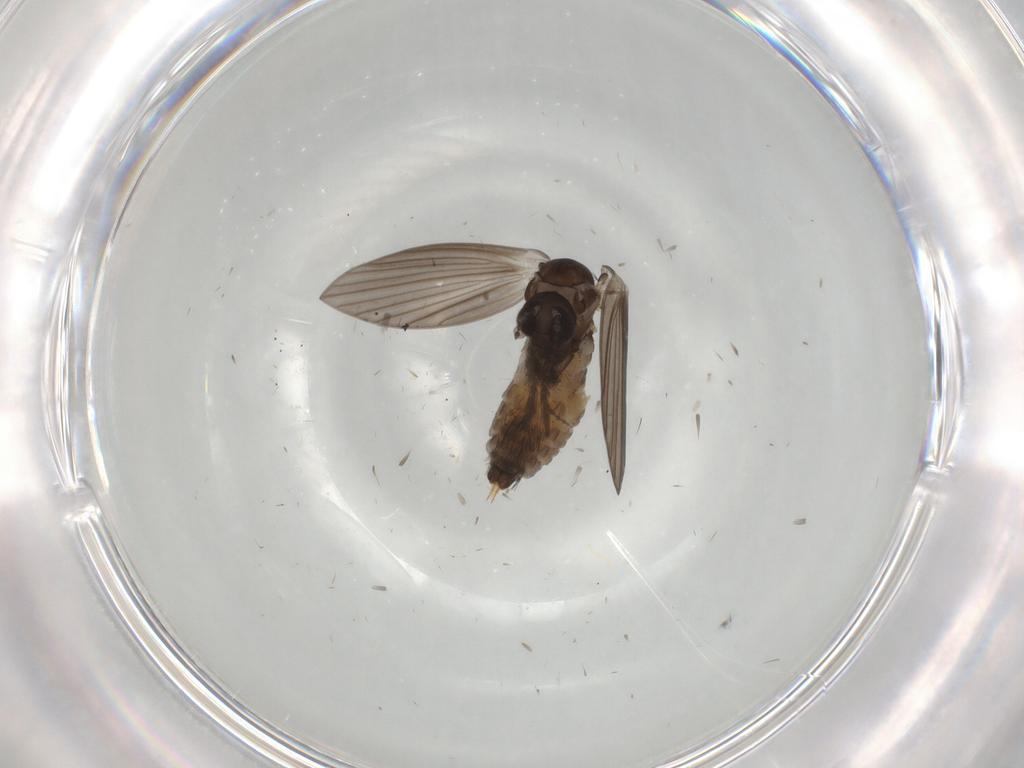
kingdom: Animalia
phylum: Arthropoda
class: Insecta
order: Diptera
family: Psychodidae
